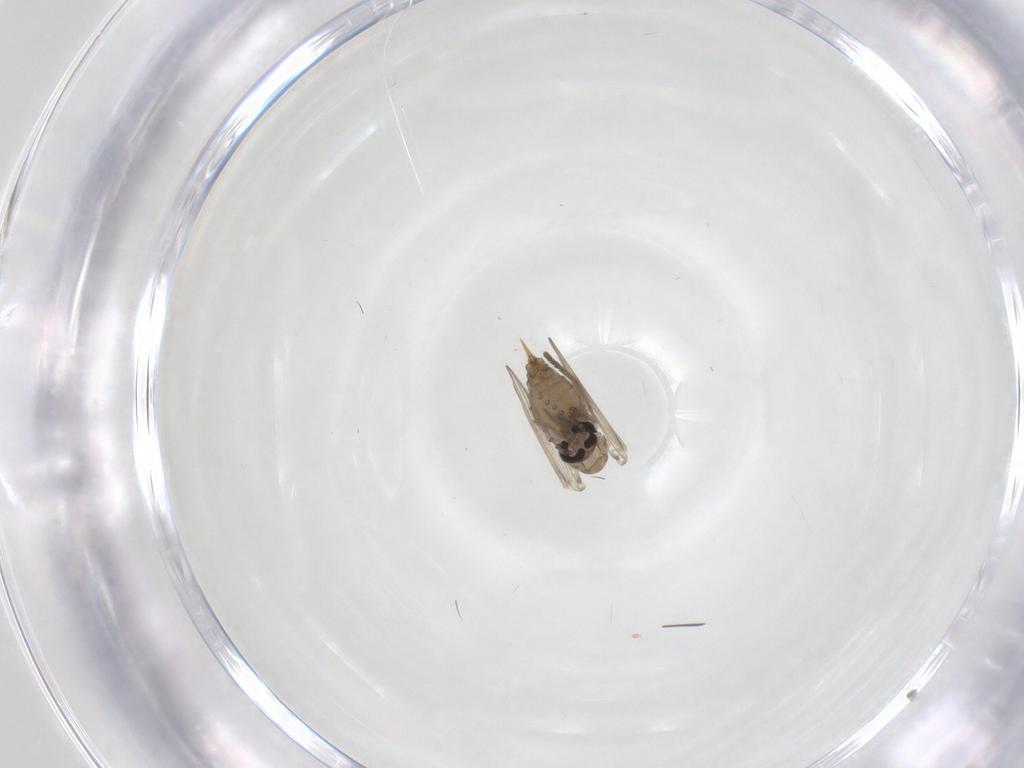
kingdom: Animalia
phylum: Arthropoda
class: Insecta
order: Diptera
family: Psychodidae
